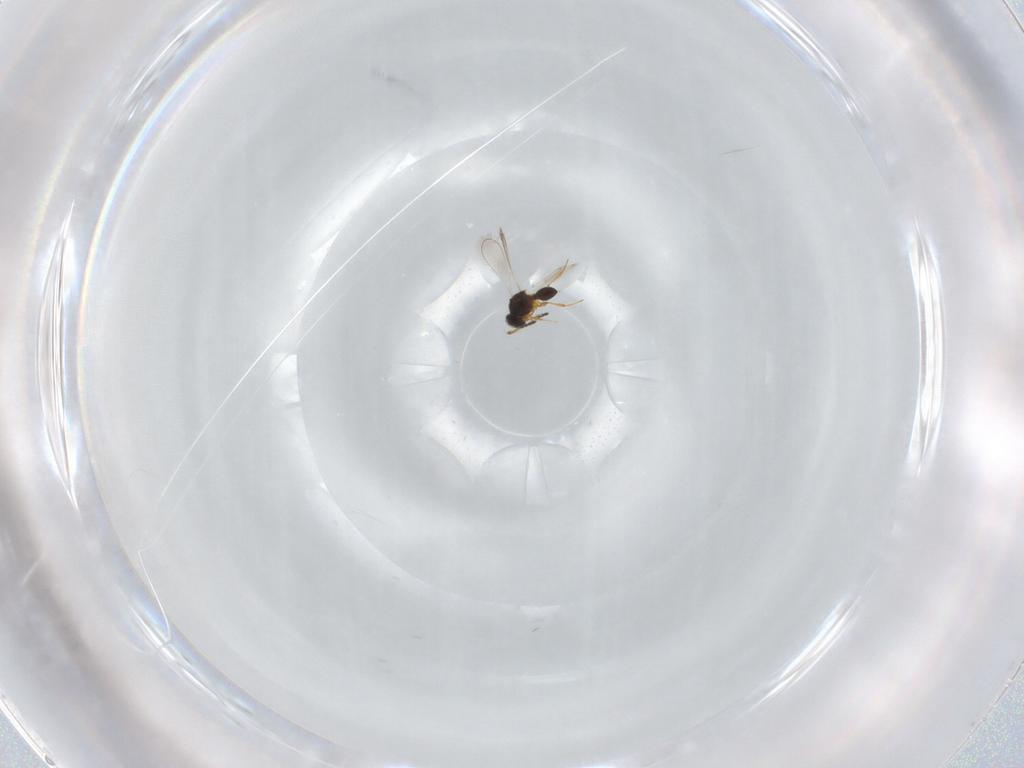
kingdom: Animalia
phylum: Arthropoda
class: Insecta
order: Hymenoptera
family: Platygastridae
